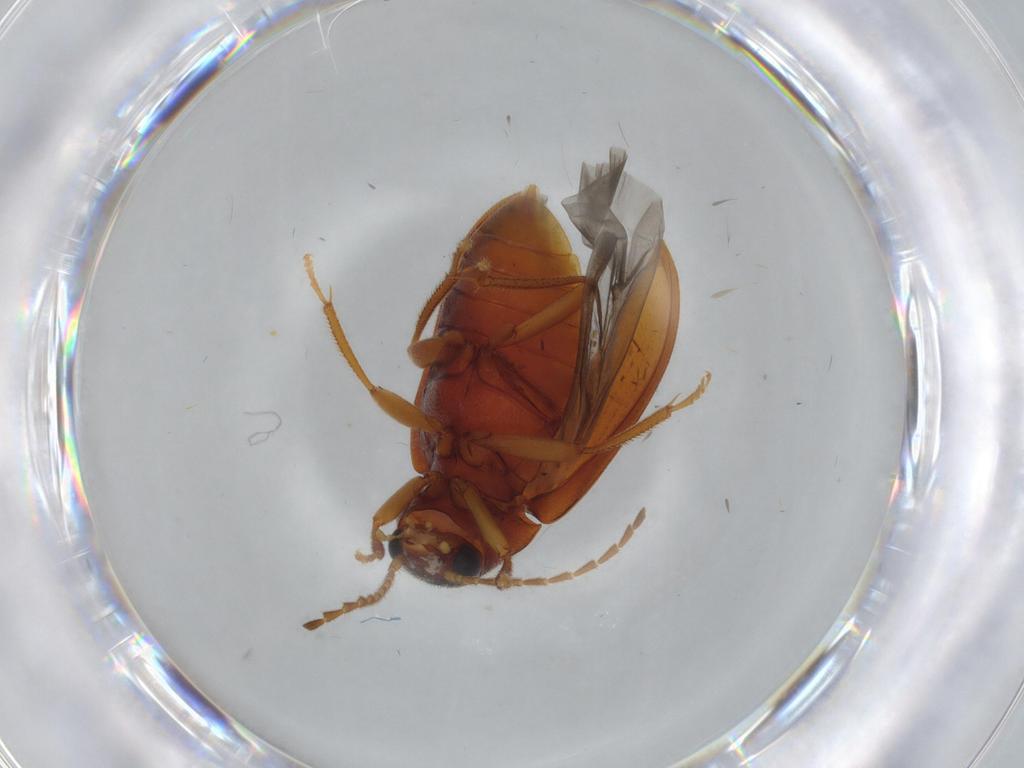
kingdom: Animalia
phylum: Arthropoda
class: Insecta
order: Coleoptera
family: Ptilodactylidae
